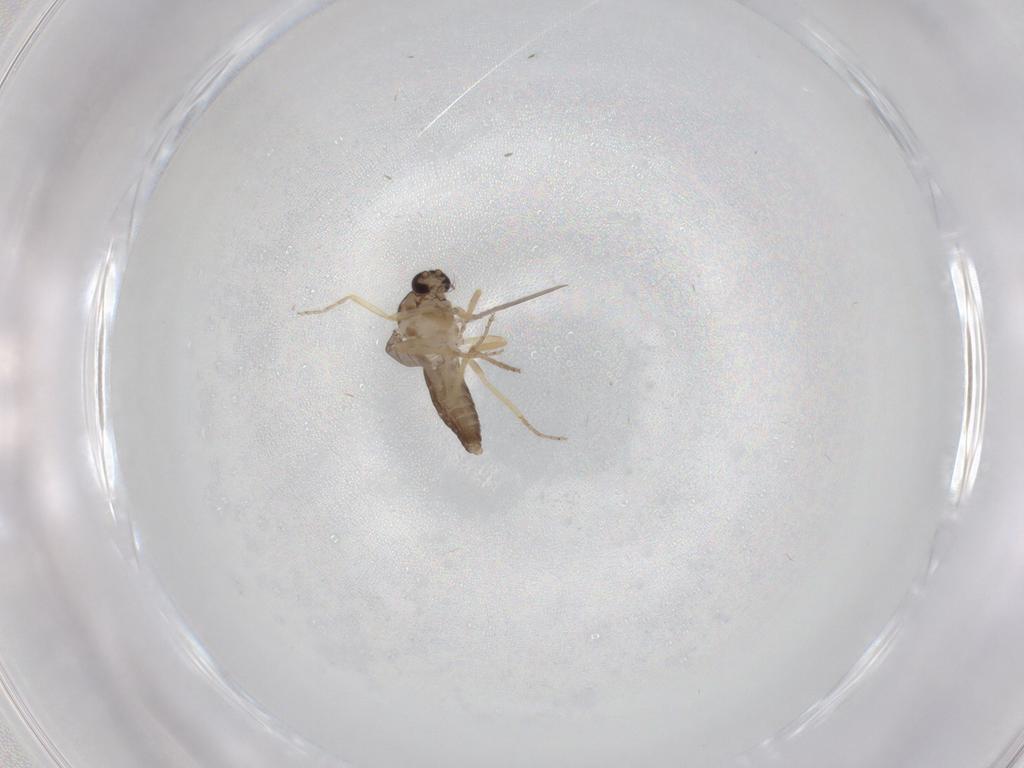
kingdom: Animalia
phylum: Arthropoda
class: Insecta
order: Diptera
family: Ceratopogonidae
